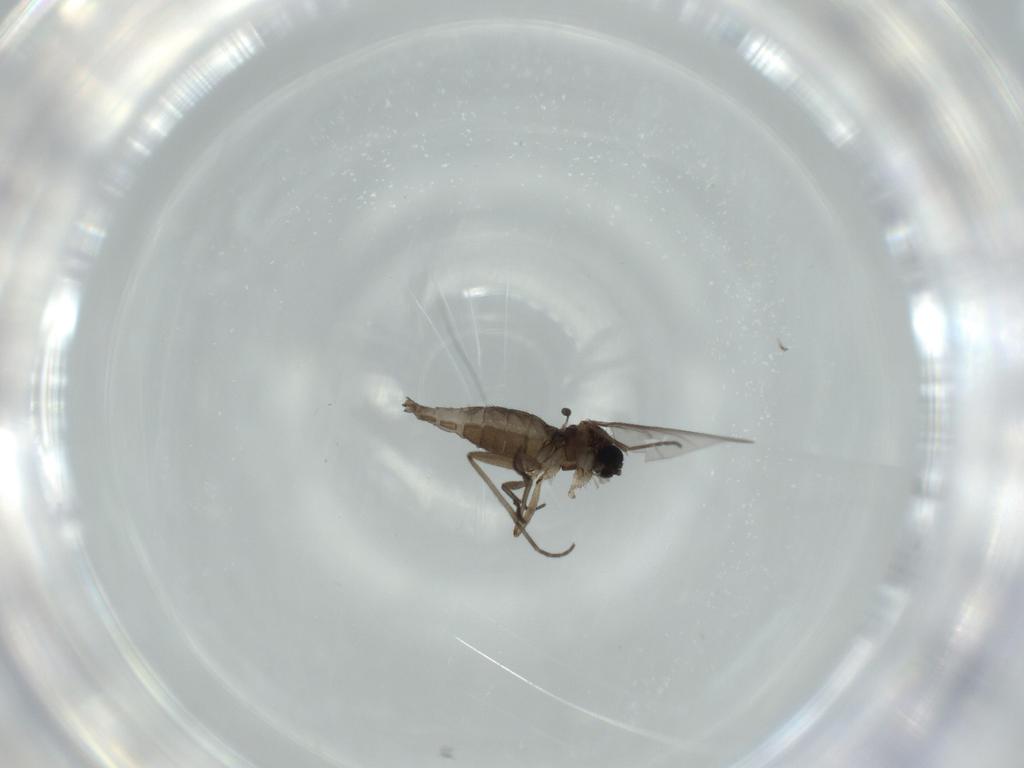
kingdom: Animalia
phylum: Arthropoda
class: Insecta
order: Diptera
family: Sciaridae
